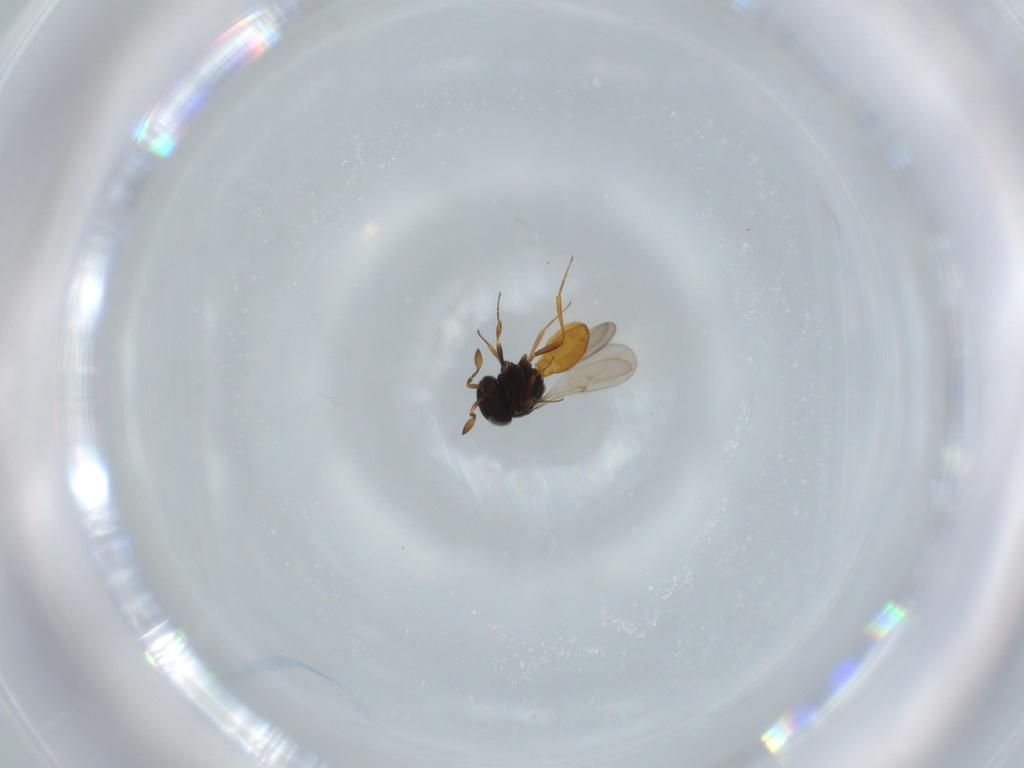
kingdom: Animalia
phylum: Arthropoda
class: Insecta
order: Hymenoptera
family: Scelionidae
